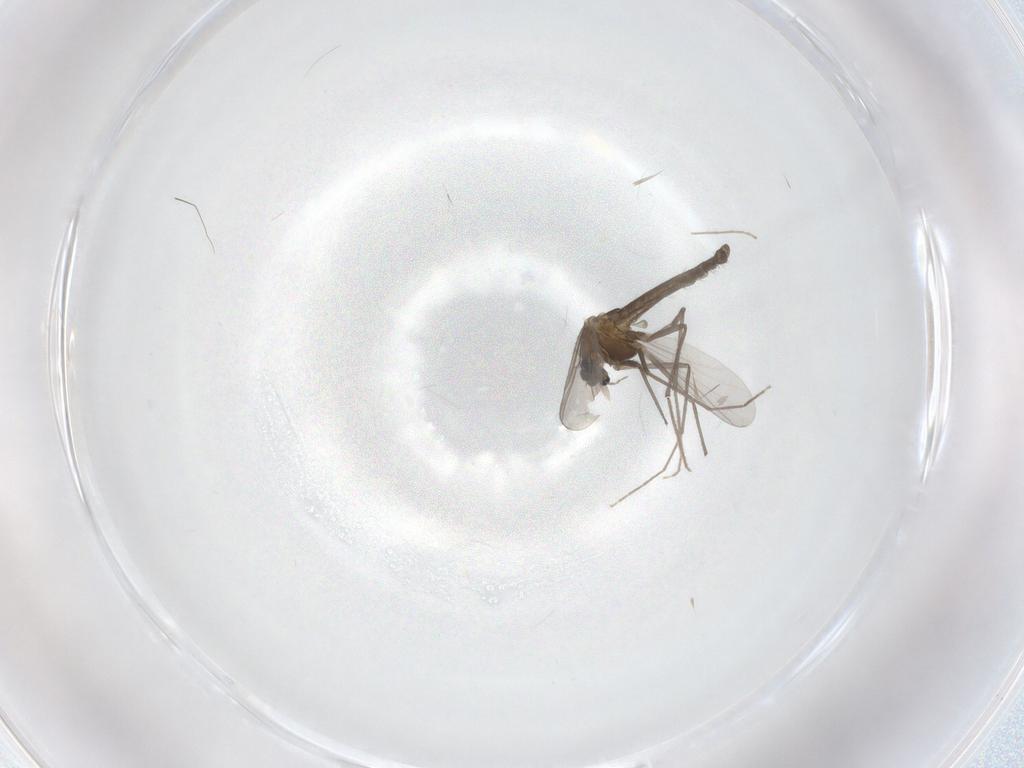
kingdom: Animalia
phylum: Arthropoda
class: Insecta
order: Diptera
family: Chironomidae
